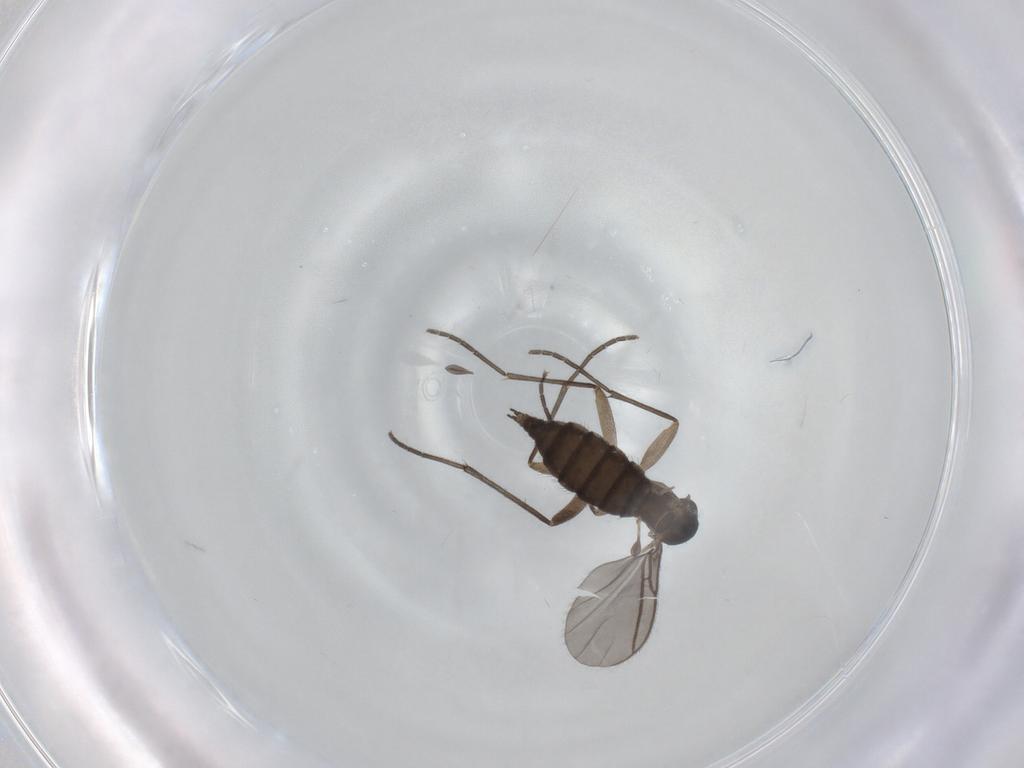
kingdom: Animalia
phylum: Arthropoda
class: Insecta
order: Diptera
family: Sciaridae
